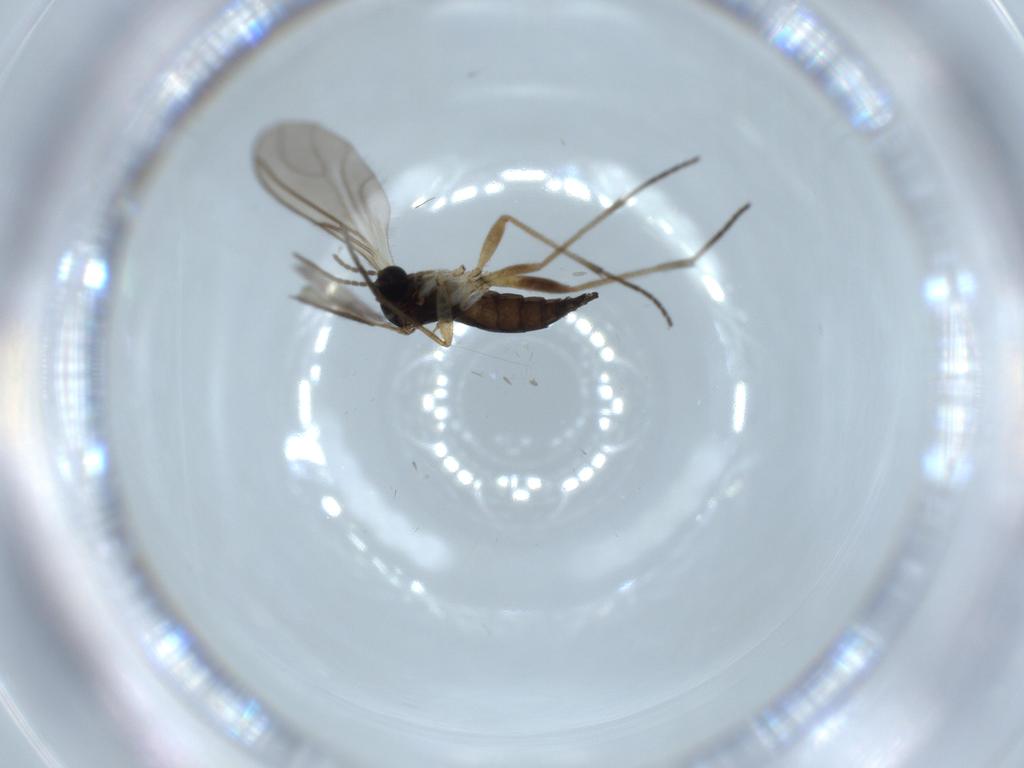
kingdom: Animalia
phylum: Arthropoda
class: Insecta
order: Diptera
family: Sciaridae
